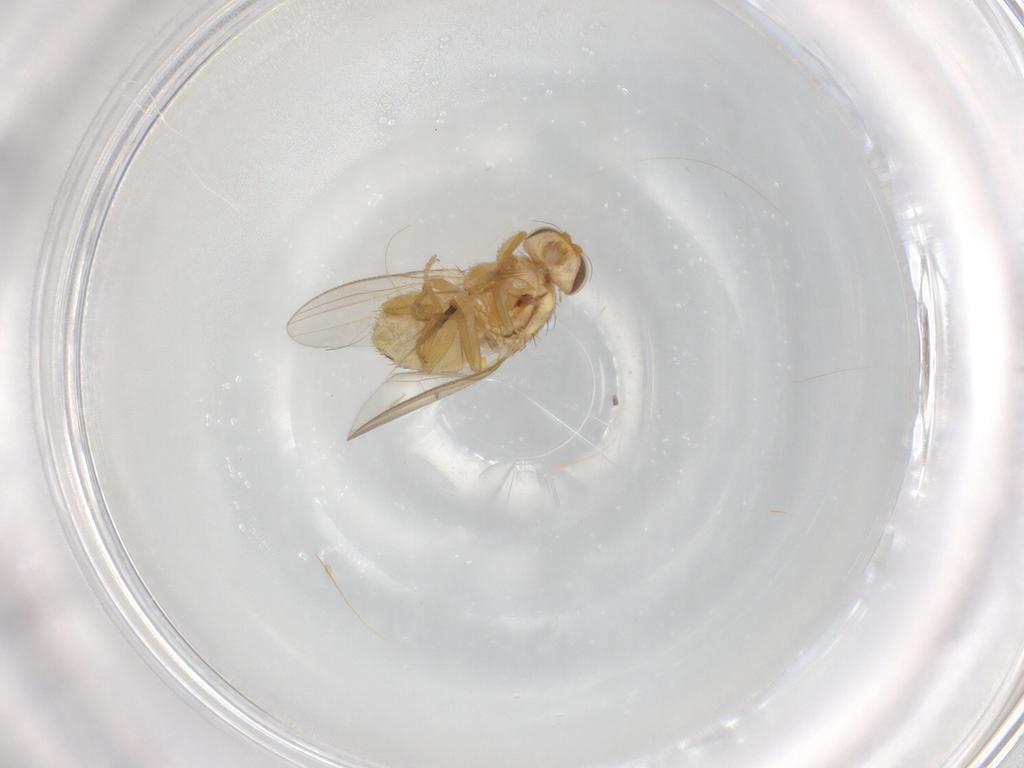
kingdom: Animalia
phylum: Arthropoda
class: Insecta
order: Diptera
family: Chyromyidae
